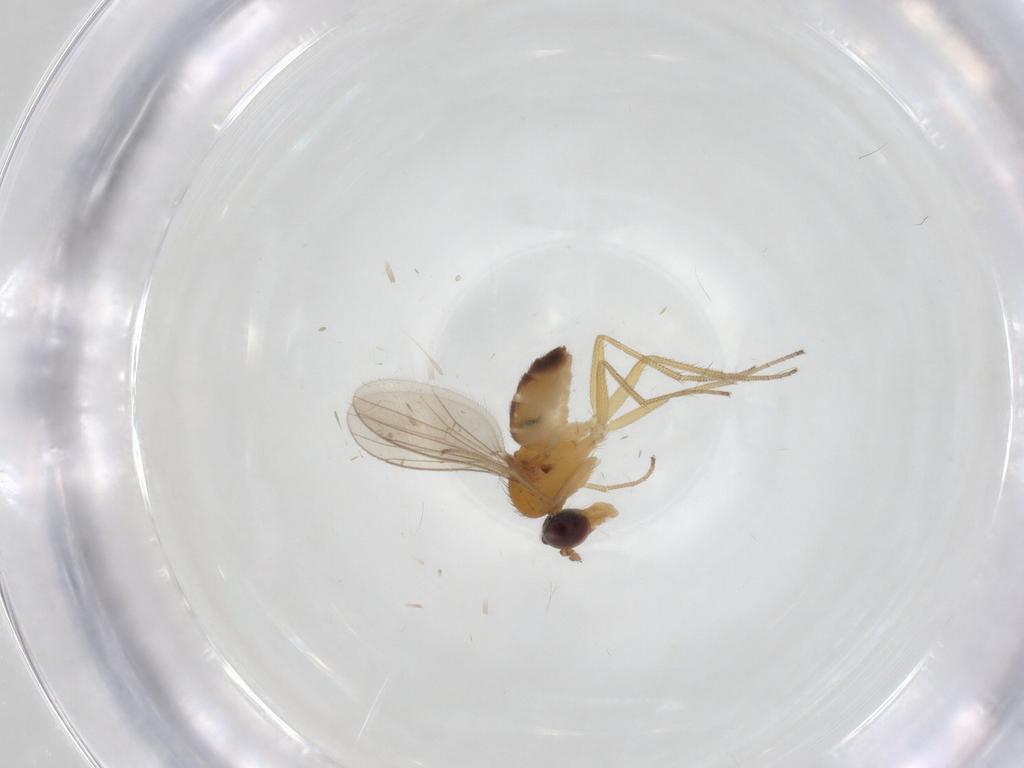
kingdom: Animalia
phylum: Arthropoda
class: Insecta
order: Diptera
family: Dolichopodidae
